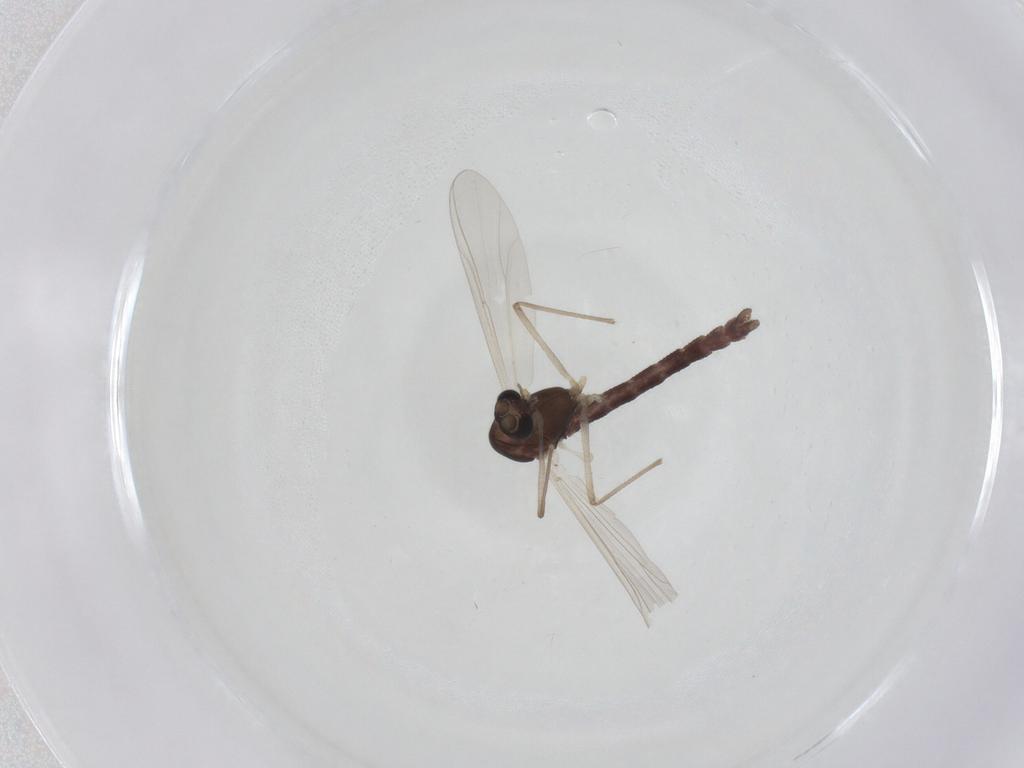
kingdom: Animalia
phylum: Arthropoda
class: Insecta
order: Diptera
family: Chironomidae
